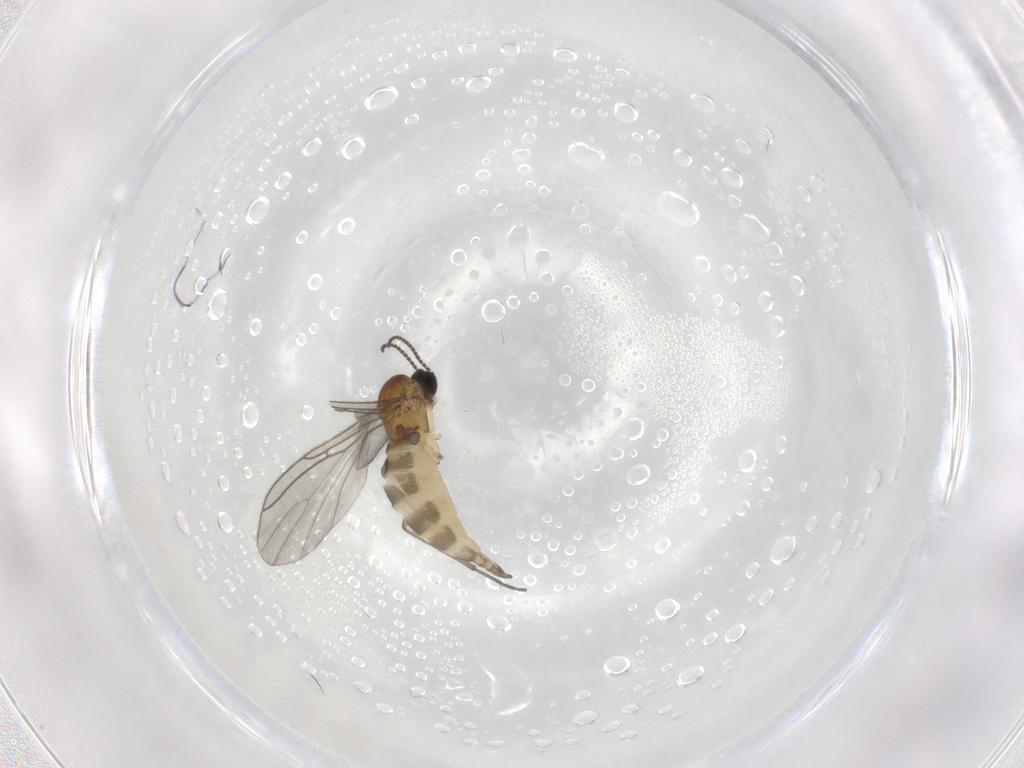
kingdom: Animalia
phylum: Arthropoda
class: Insecta
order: Diptera
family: Sciaridae
